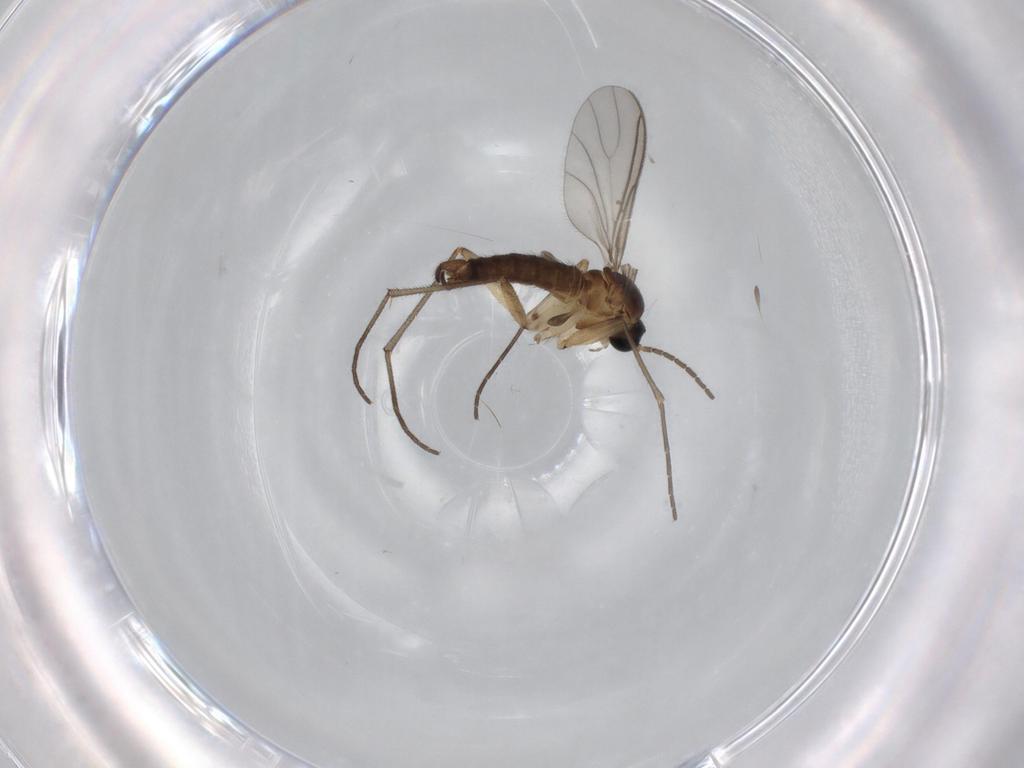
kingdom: Animalia
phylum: Arthropoda
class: Insecta
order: Diptera
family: Sciaridae
